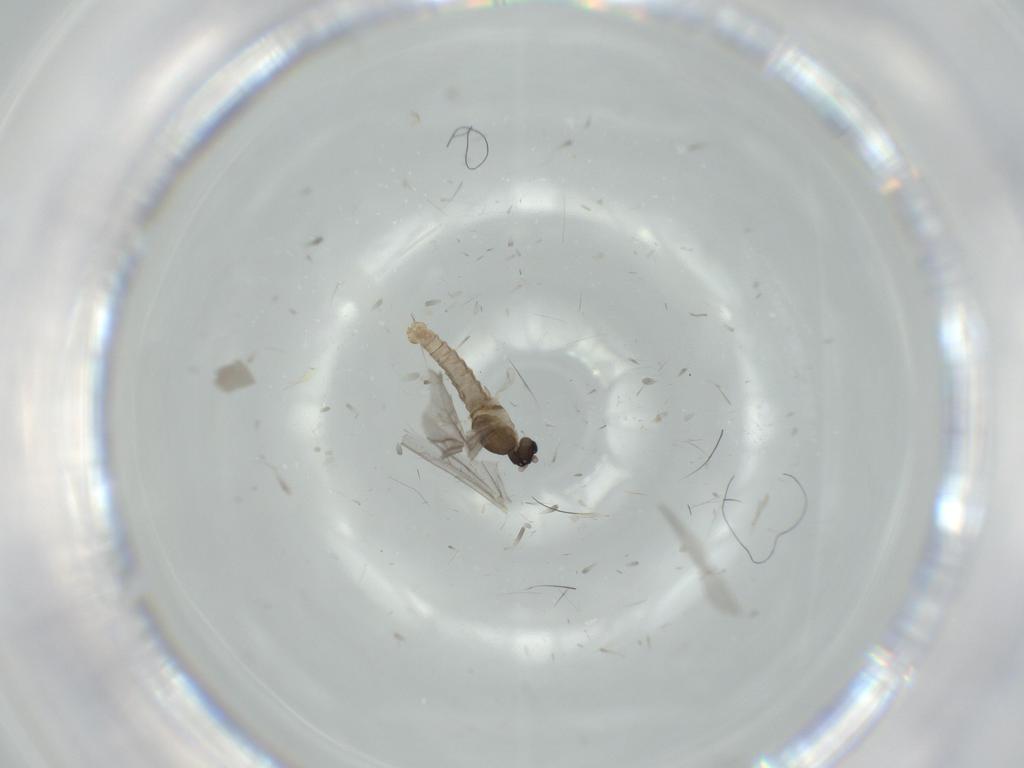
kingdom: Animalia
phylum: Arthropoda
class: Insecta
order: Diptera
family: Cecidomyiidae
